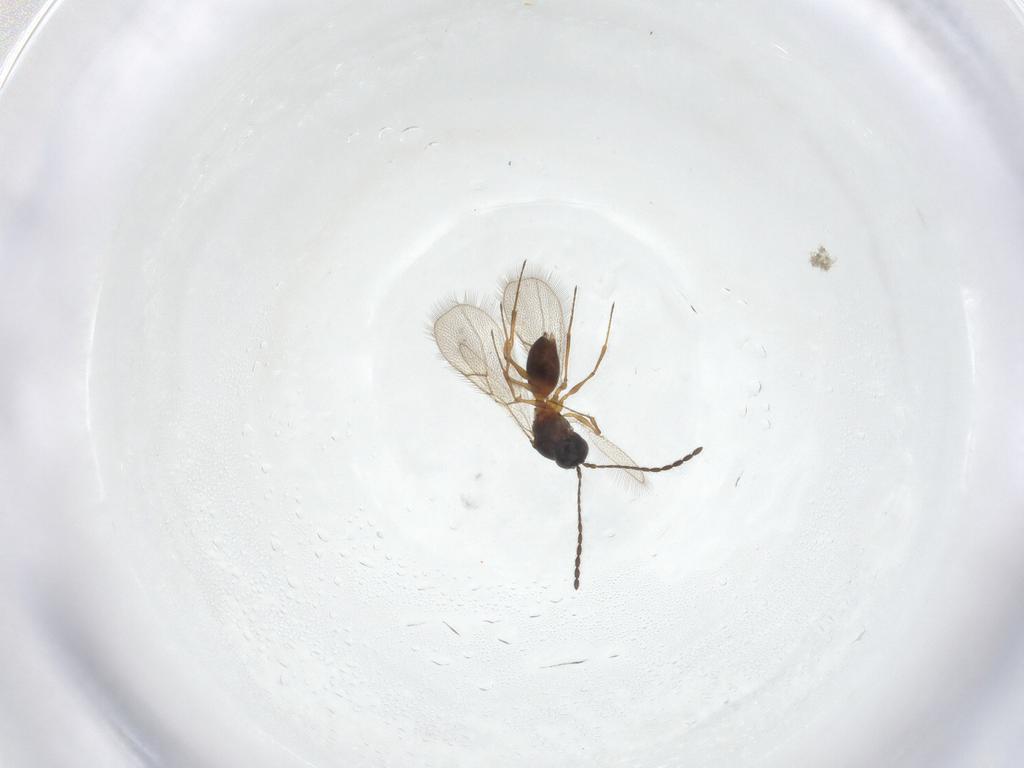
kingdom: Animalia
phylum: Arthropoda
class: Insecta
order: Hymenoptera
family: Figitidae
